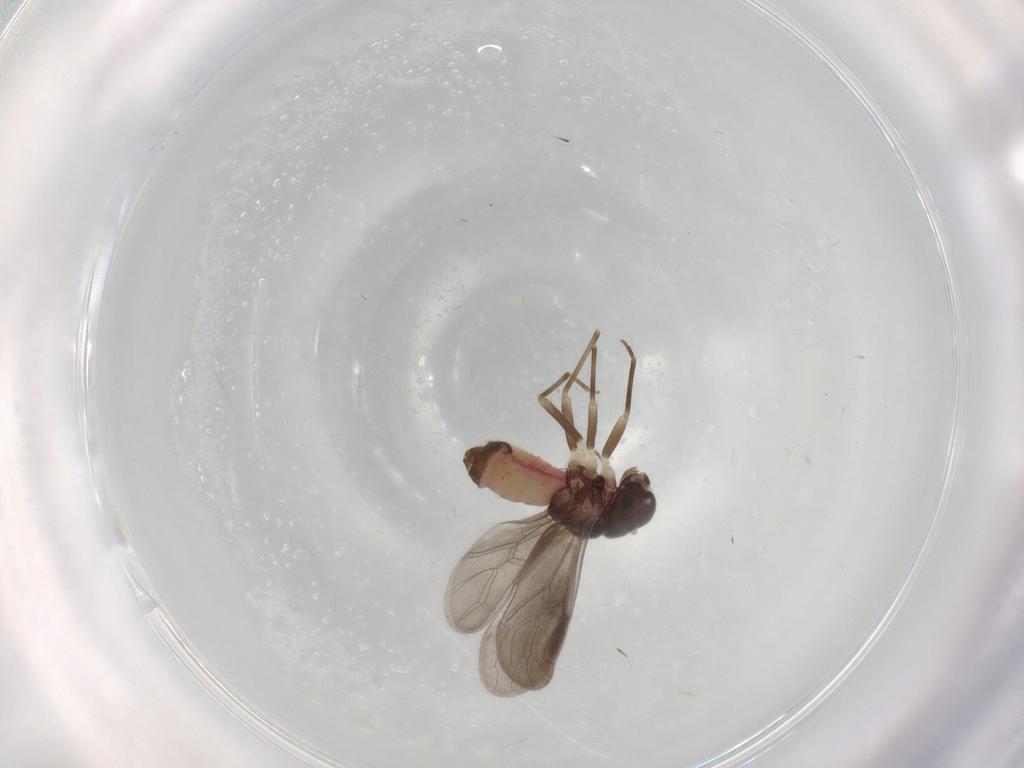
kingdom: Animalia
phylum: Arthropoda
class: Insecta
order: Psocodea
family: Caeciliusidae
